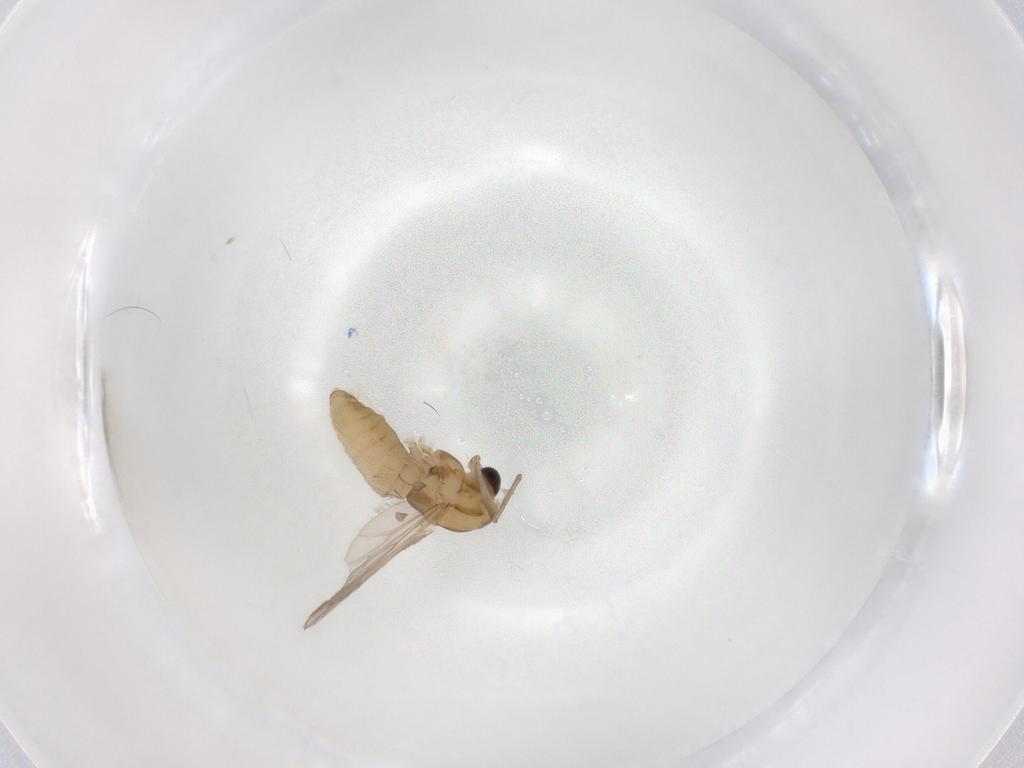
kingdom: Animalia
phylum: Arthropoda
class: Insecta
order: Diptera
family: Chironomidae
